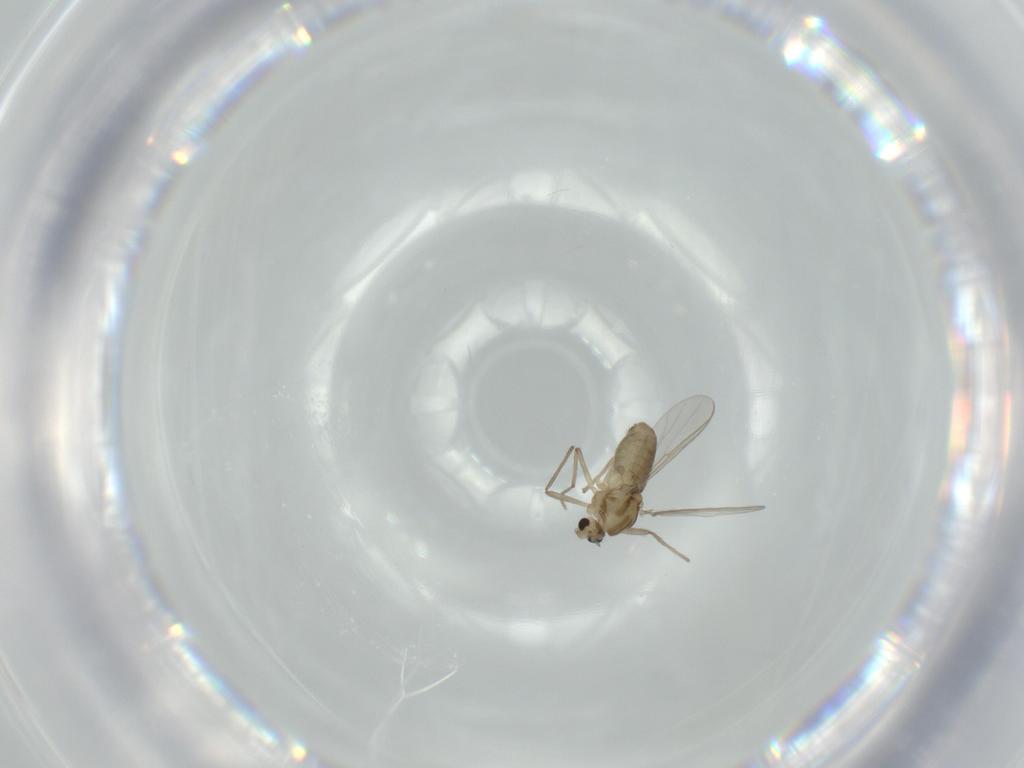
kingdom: Animalia
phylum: Arthropoda
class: Insecta
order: Diptera
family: Chironomidae
